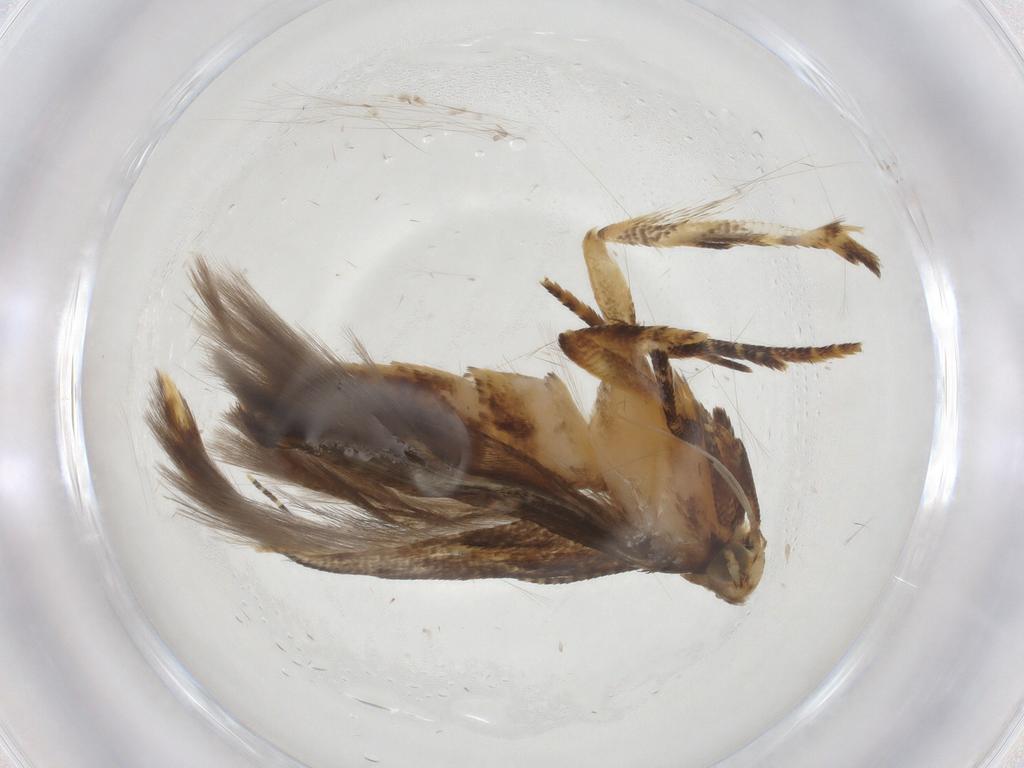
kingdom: Animalia
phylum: Arthropoda
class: Insecta
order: Lepidoptera
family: Gelechiidae
